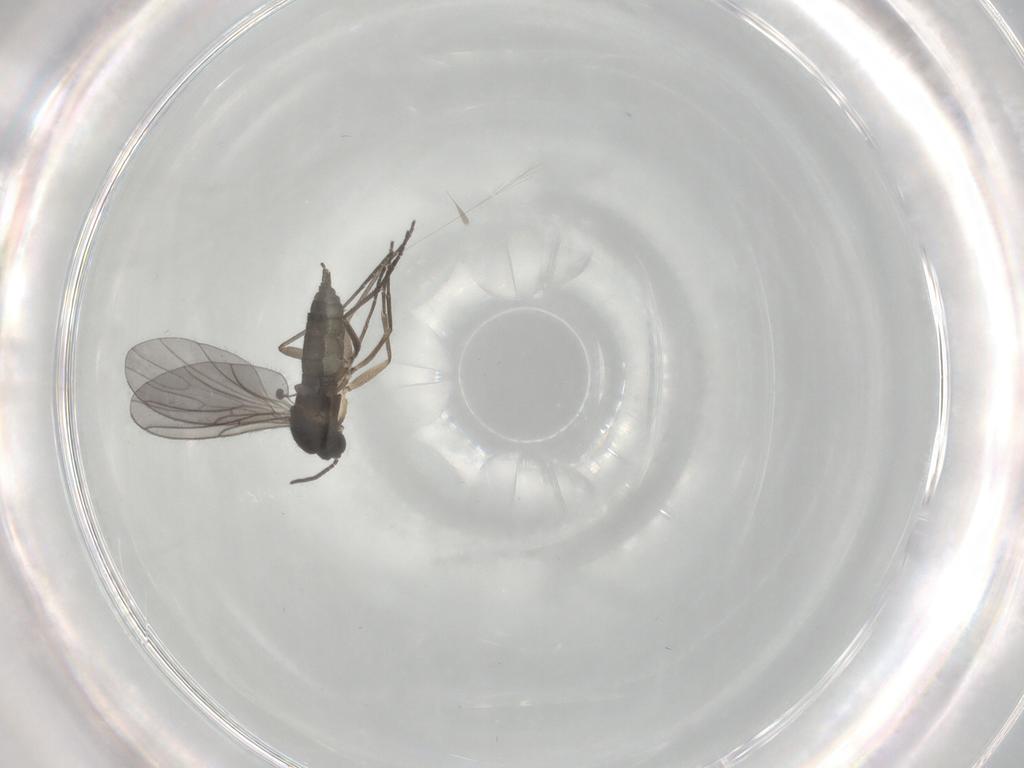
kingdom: Animalia
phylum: Arthropoda
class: Insecta
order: Diptera
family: Sciaridae
